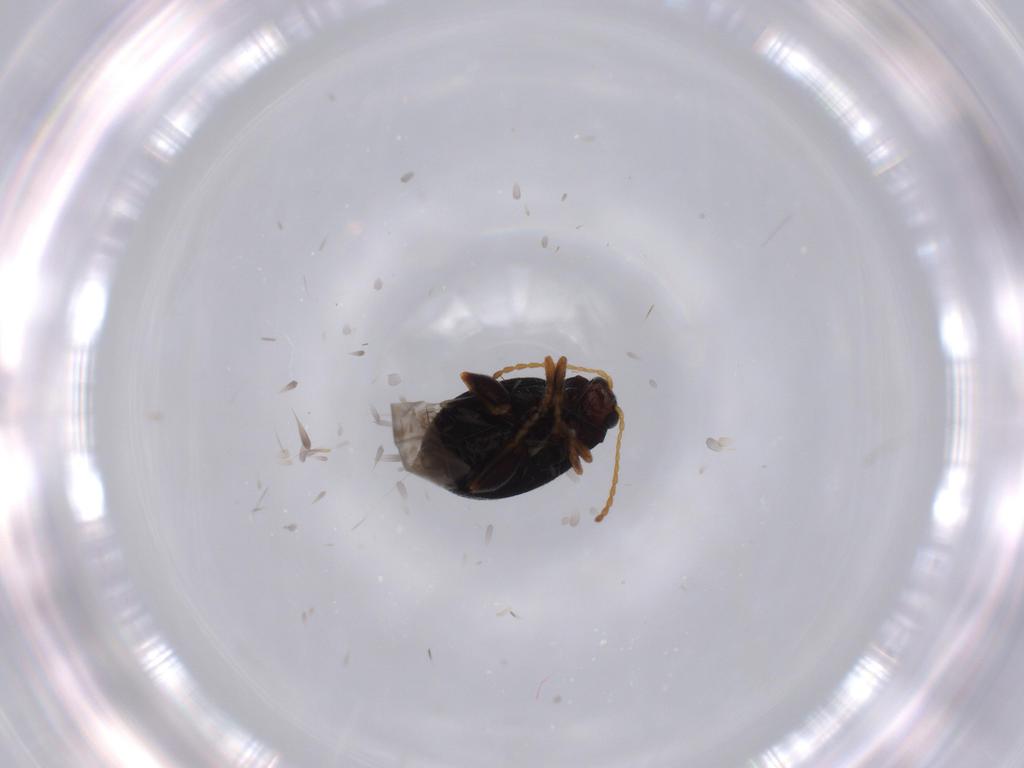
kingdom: Animalia
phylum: Arthropoda
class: Insecta
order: Coleoptera
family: Chrysomelidae
